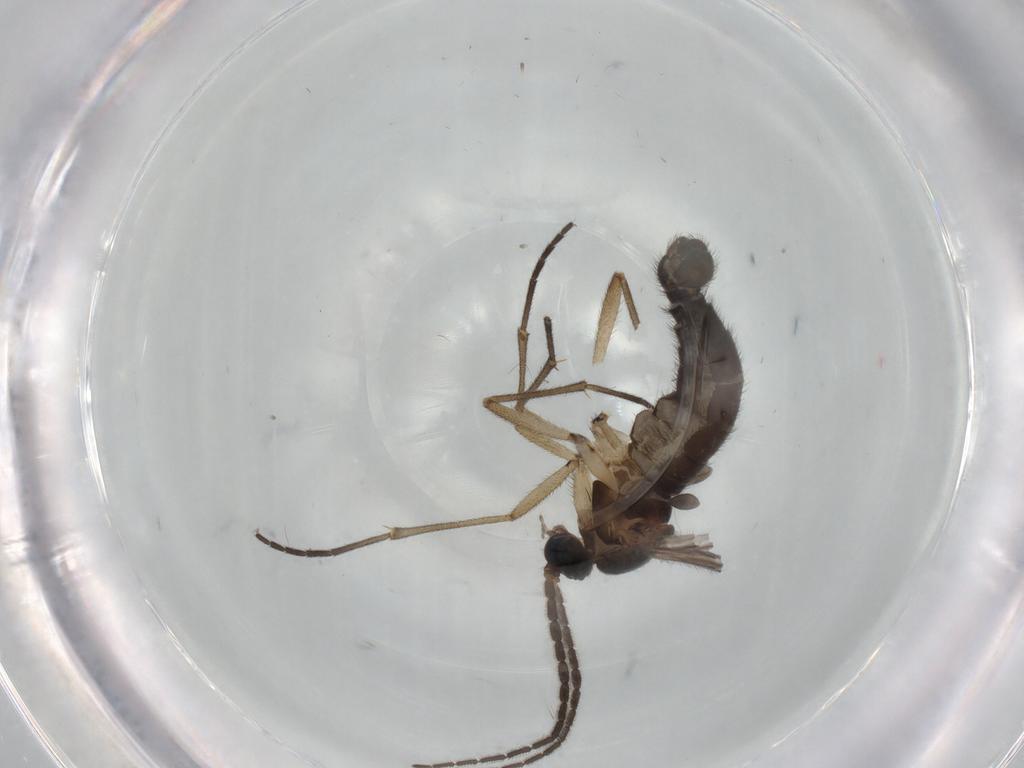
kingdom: Animalia
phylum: Arthropoda
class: Insecta
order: Diptera
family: Sciaridae
